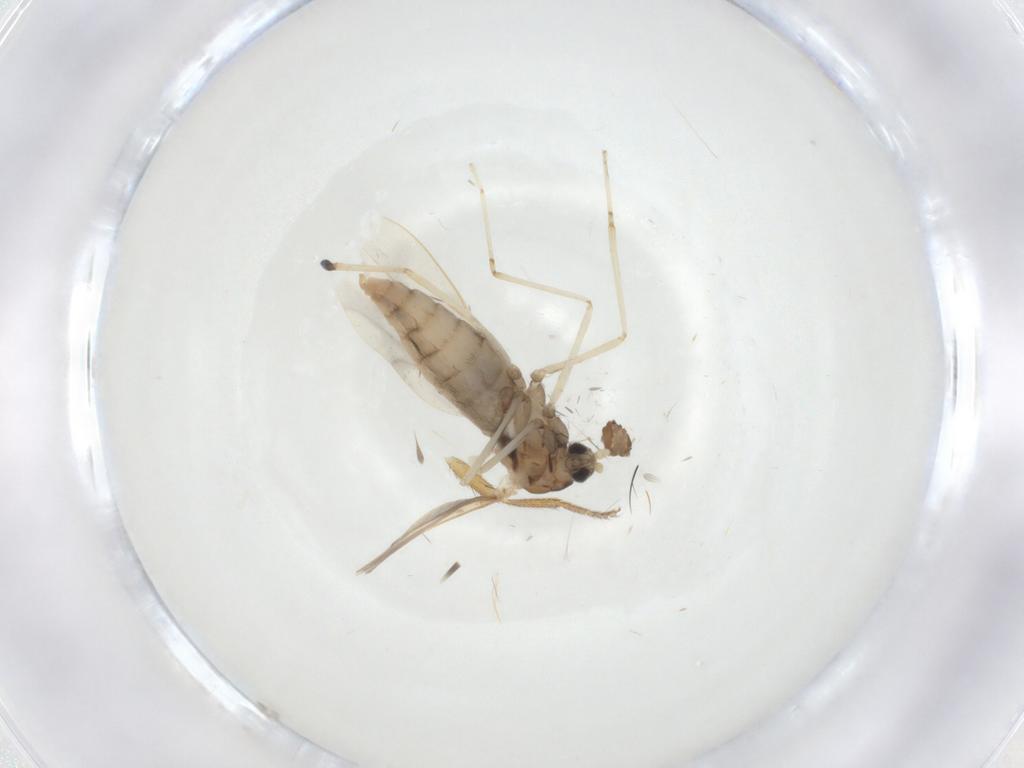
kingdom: Animalia
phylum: Arthropoda
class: Insecta
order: Diptera
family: Cecidomyiidae
